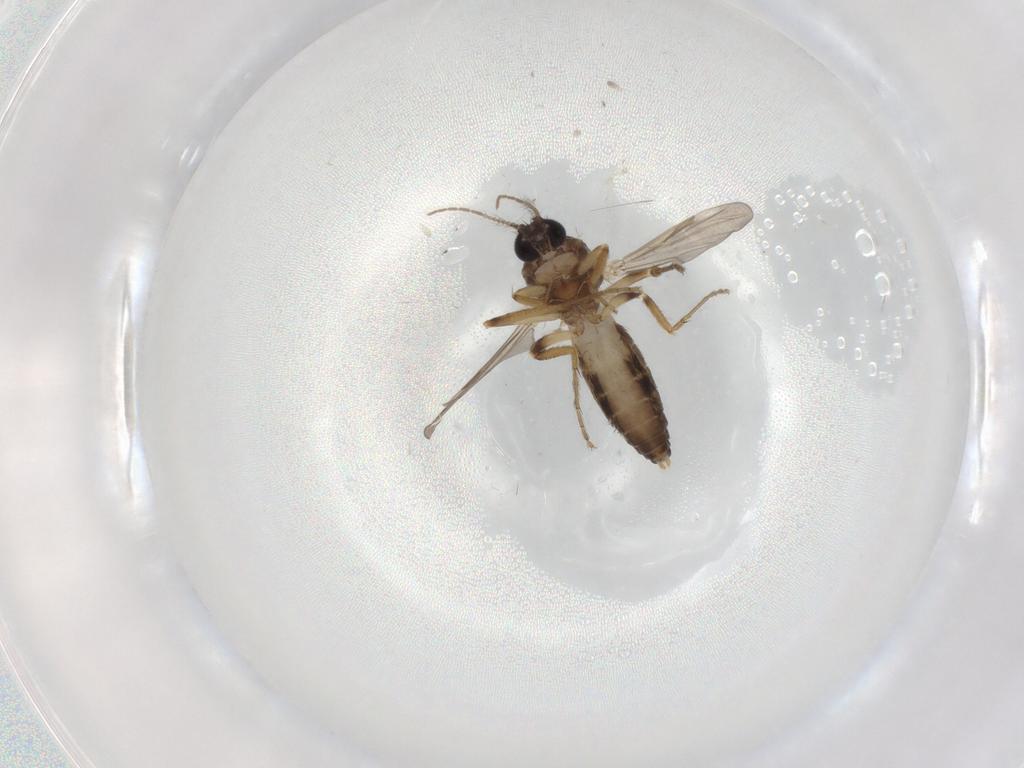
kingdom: Animalia
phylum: Arthropoda
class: Insecta
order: Diptera
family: Ceratopogonidae
